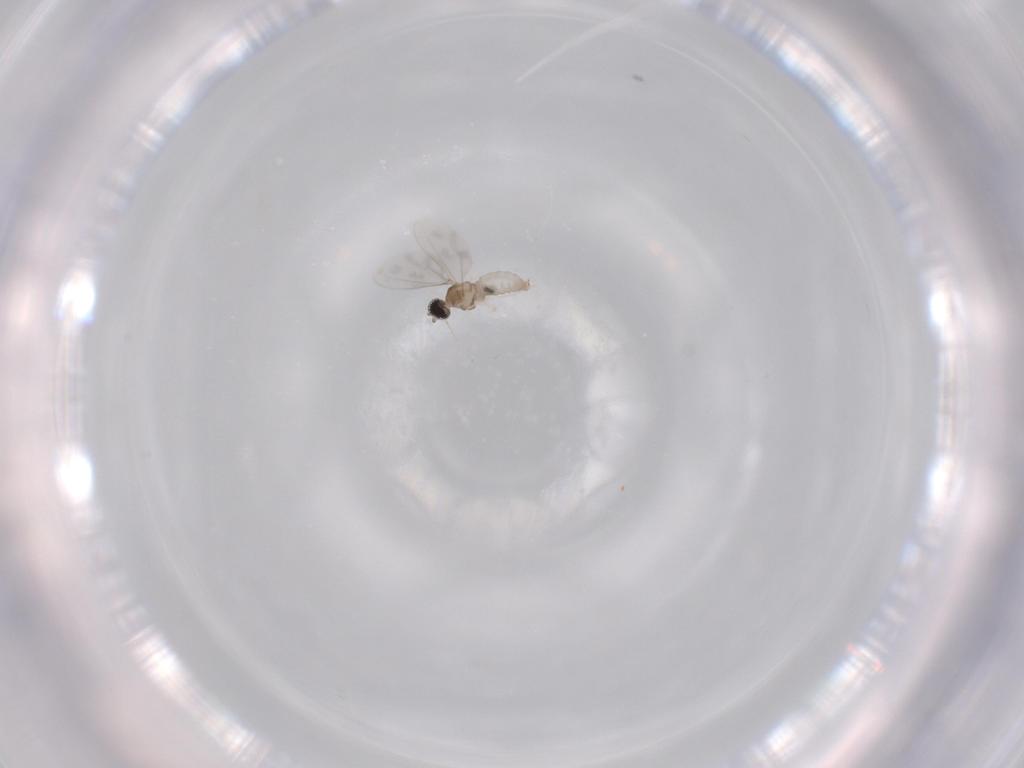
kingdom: Animalia
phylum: Arthropoda
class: Insecta
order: Diptera
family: Cecidomyiidae
